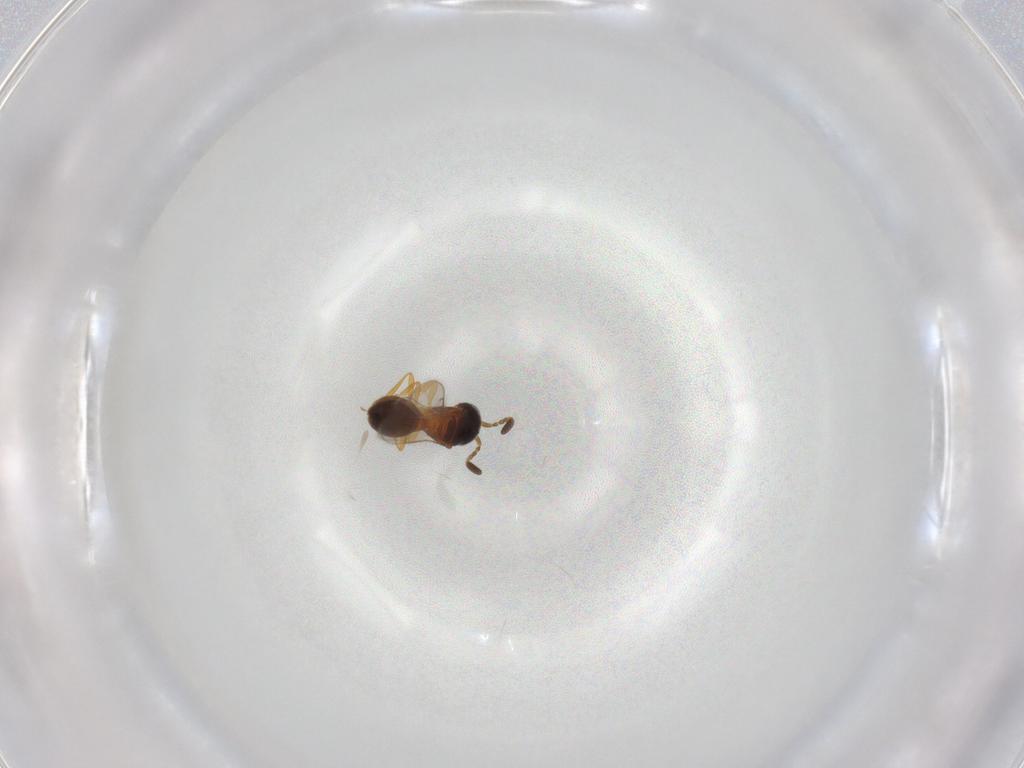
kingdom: Animalia
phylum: Arthropoda
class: Insecta
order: Hymenoptera
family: Scelionidae
